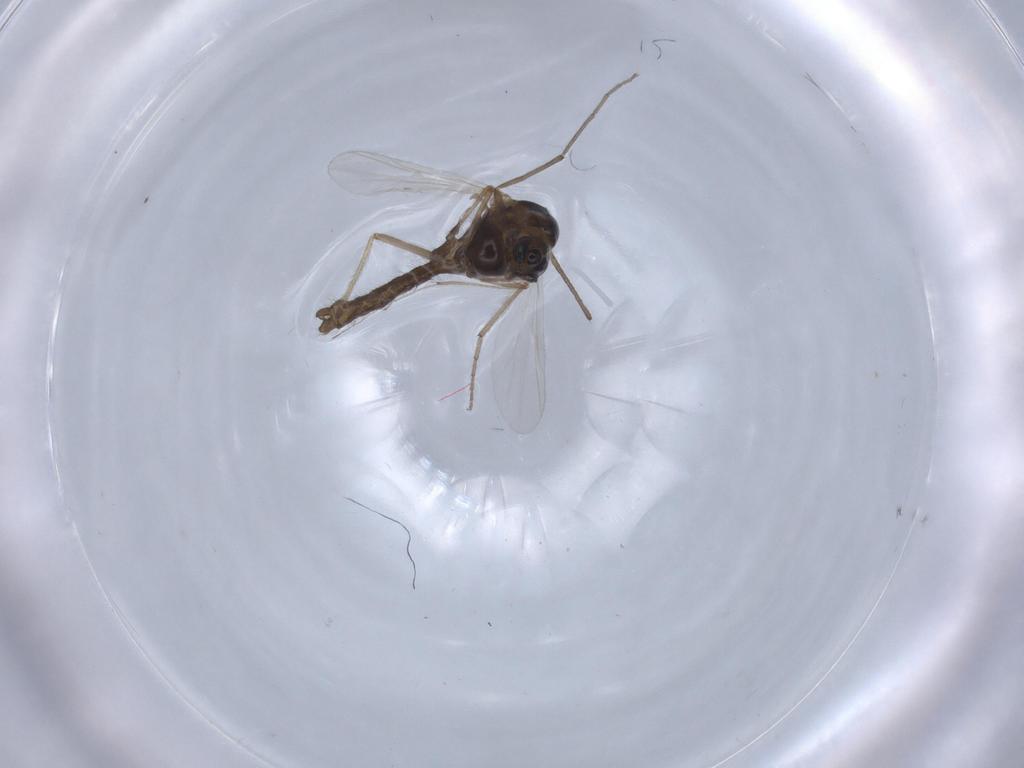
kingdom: Animalia
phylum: Arthropoda
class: Insecta
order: Diptera
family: Chironomidae
